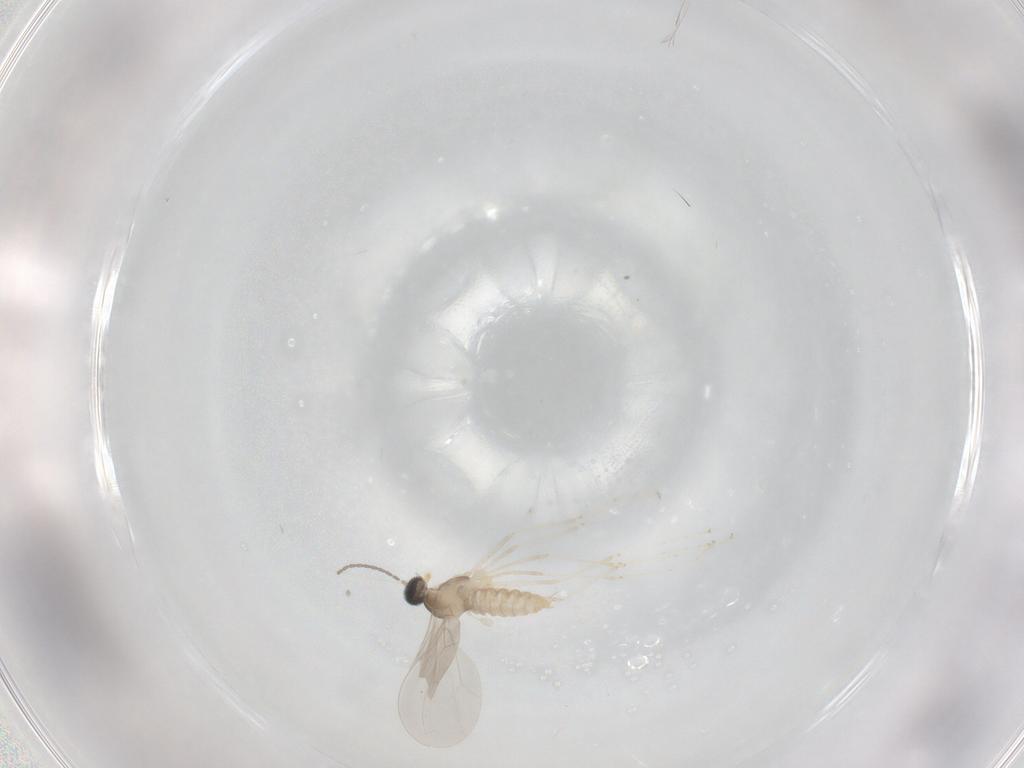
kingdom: Animalia
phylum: Arthropoda
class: Insecta
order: Diptera
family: Cecidomyiidae
